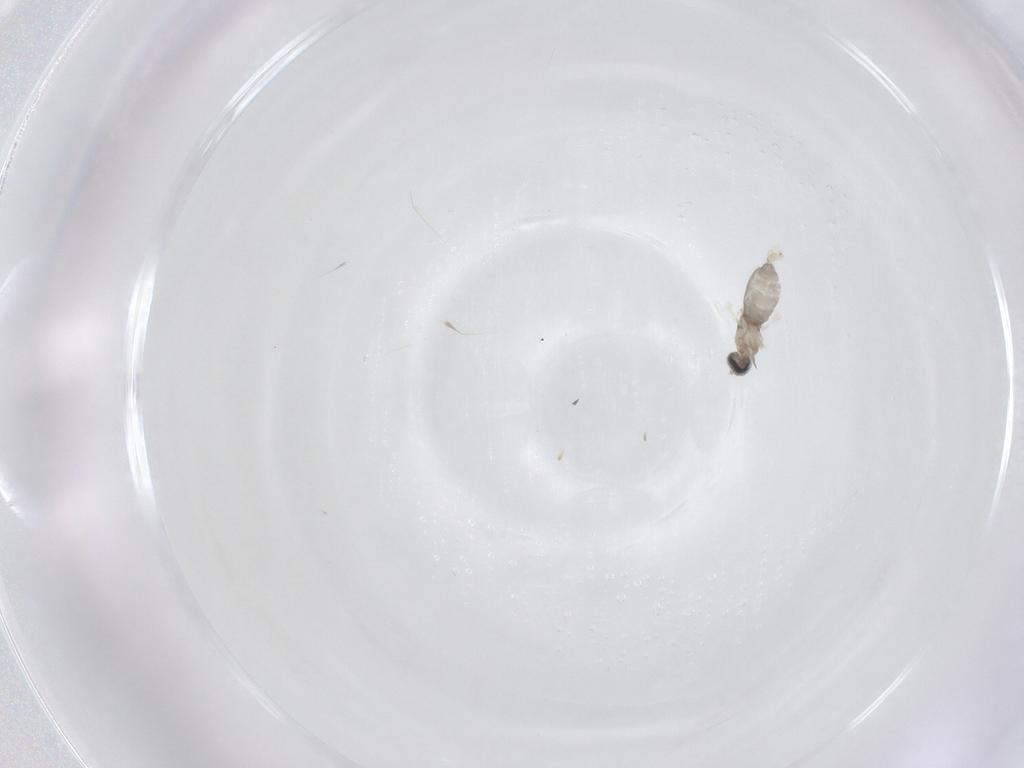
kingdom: Animalia
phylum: Arthropoda
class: Insecta
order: Diptera
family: Cecidomyiidae
